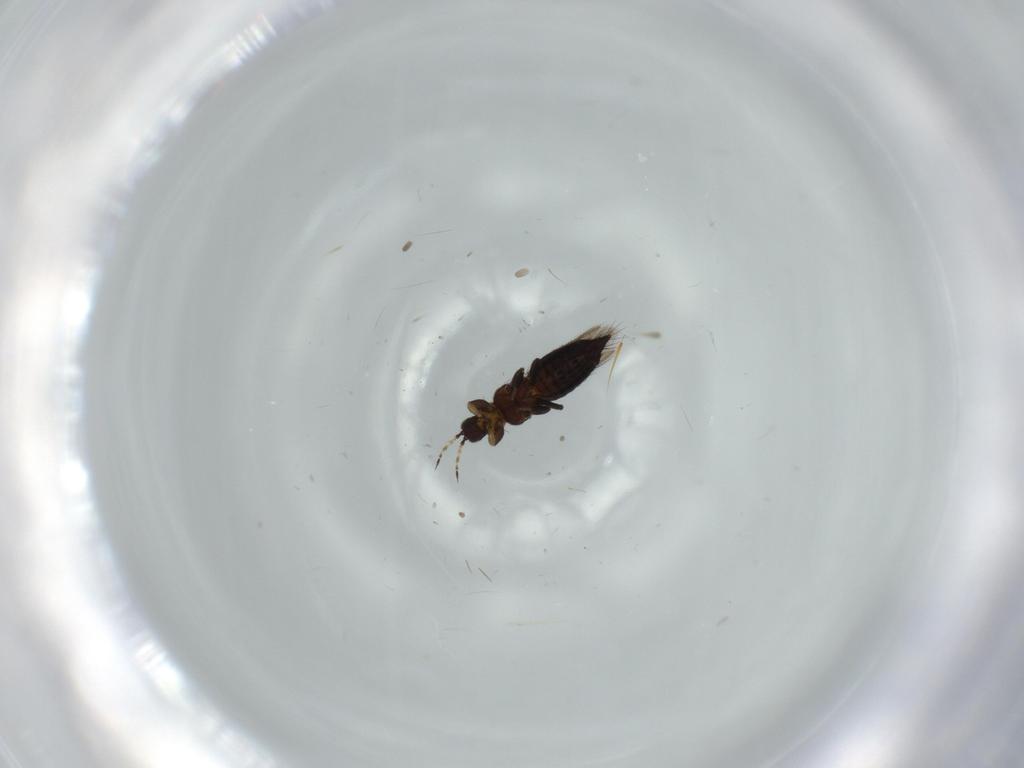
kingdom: Animalia
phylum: Arthropoda
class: Insecta
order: Thysanoptera
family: Thripidae
